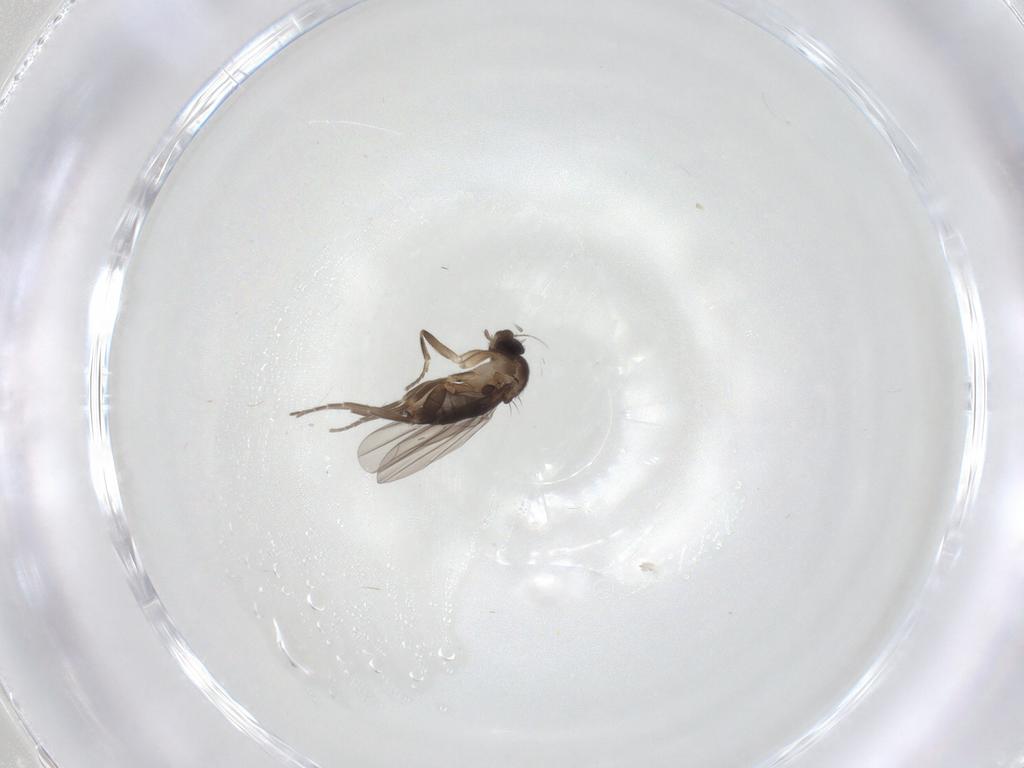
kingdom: Animalia
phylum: Arthropoda
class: Insecta
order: Diptera
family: Phoridae
